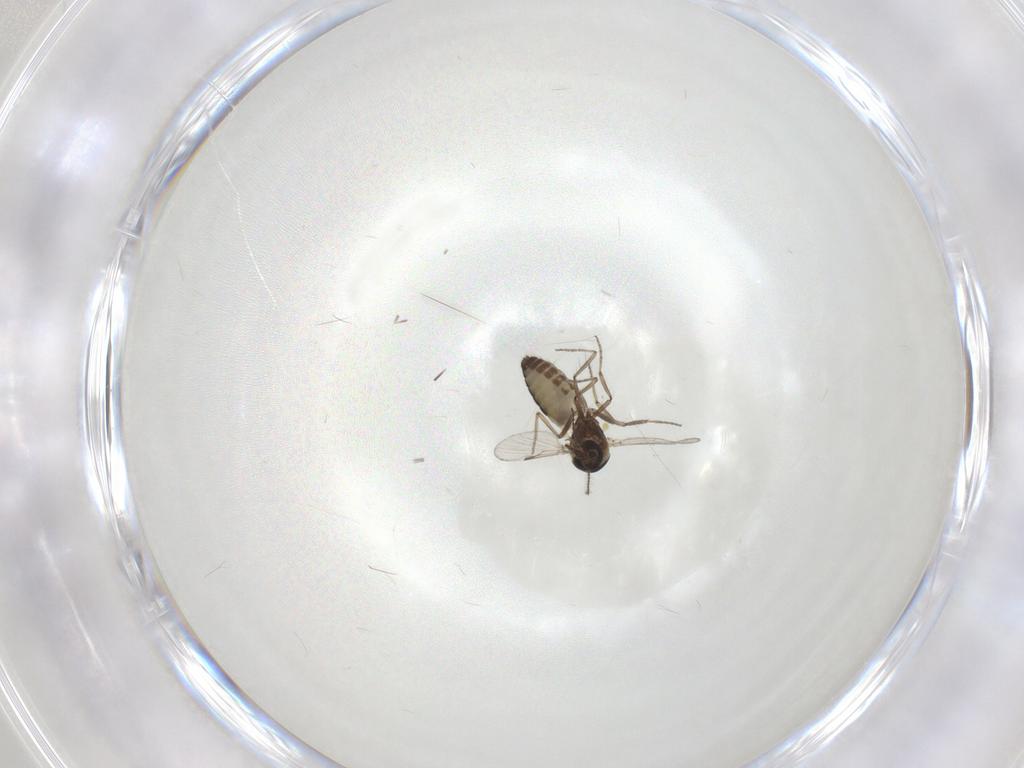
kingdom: Animalia
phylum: Arthropoda
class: Insecta
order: Diptera
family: Ceratopogonidae
